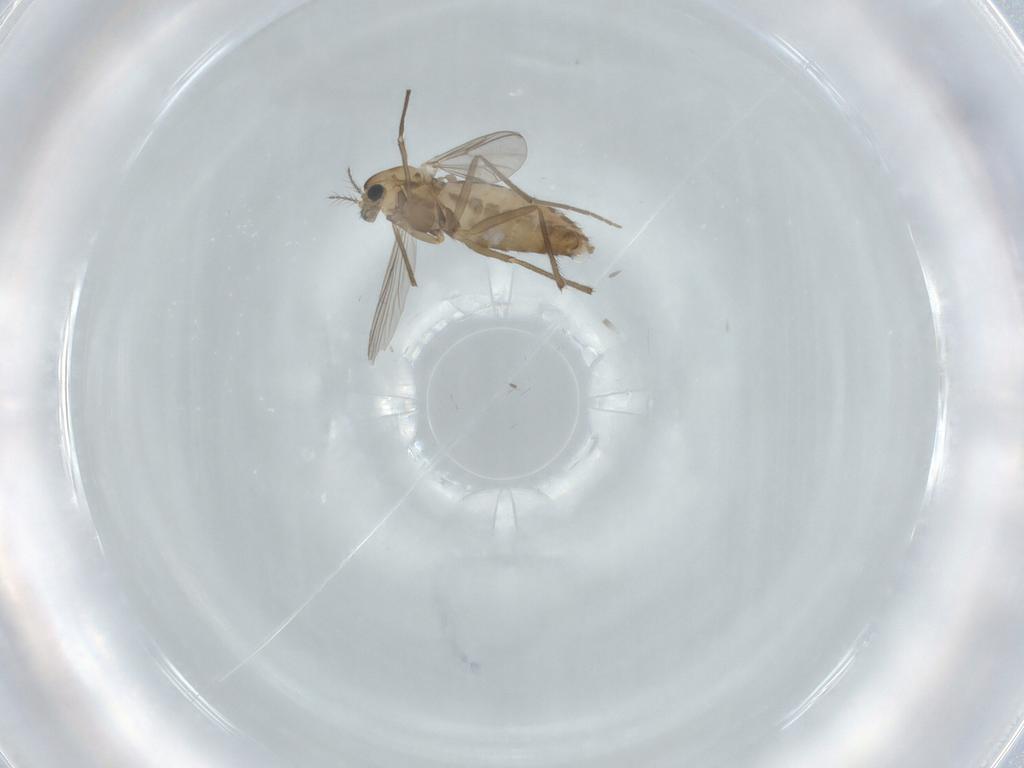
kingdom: Animalia
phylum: Arthropoda
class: Insecta
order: Diptera
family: Chironomidae
